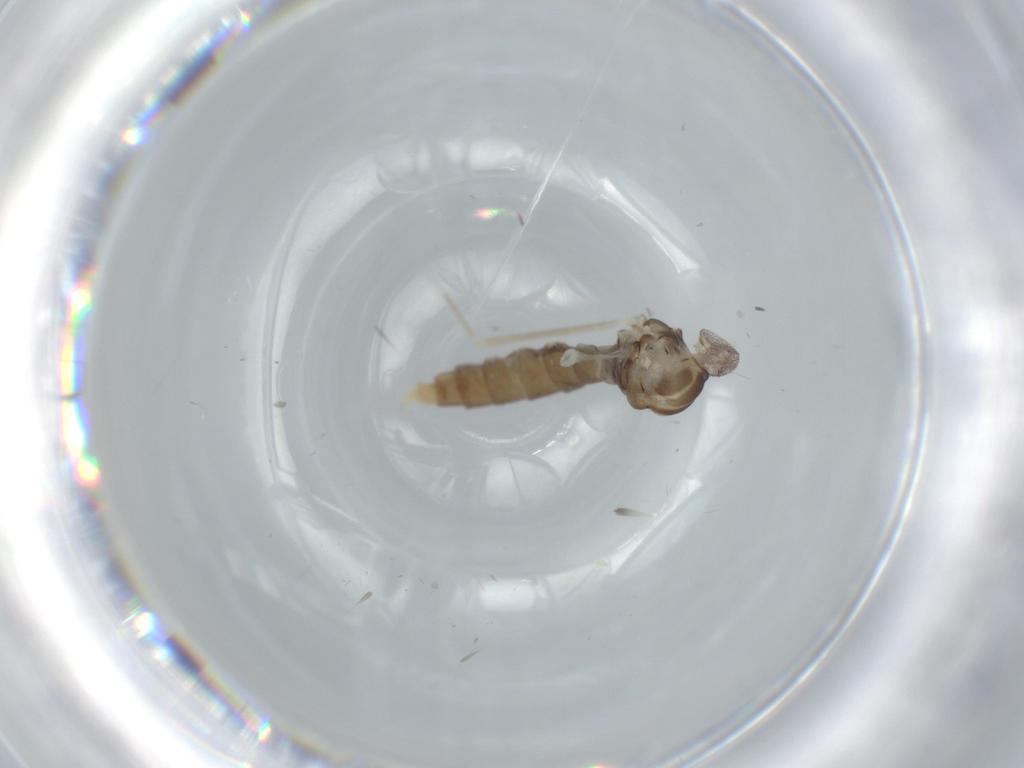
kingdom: Animalia
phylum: Arthropoda
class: Insecta
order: Diptera
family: Cecidomyiidae
